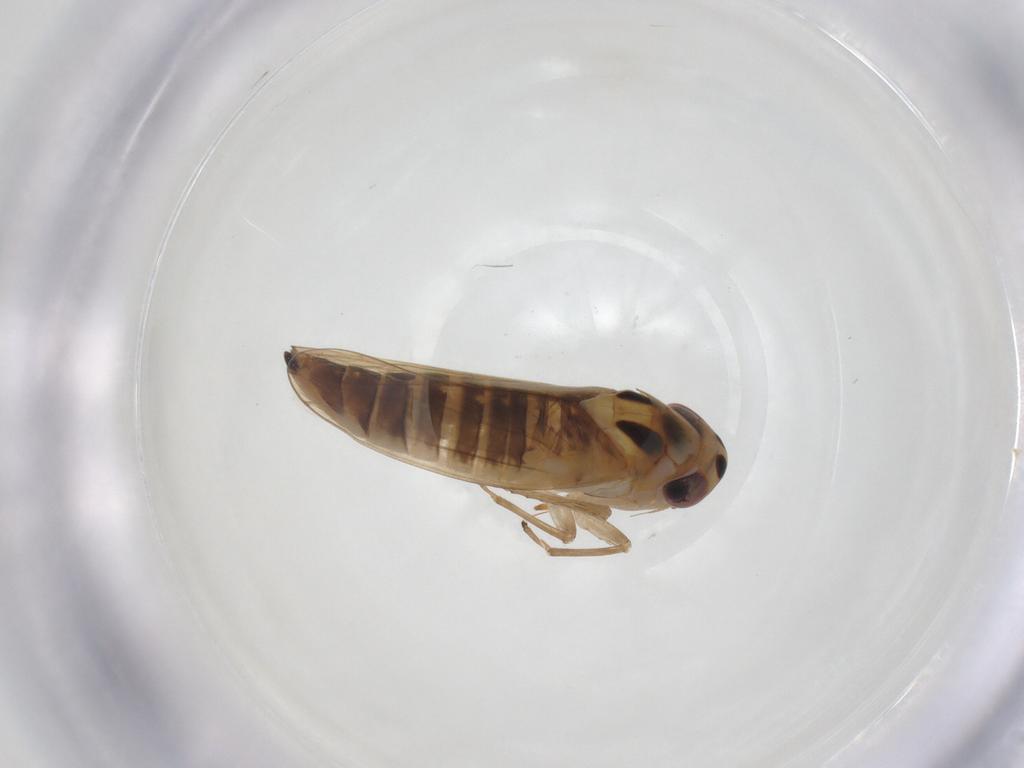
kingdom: Animalia
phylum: Arthropoda
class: Insecta
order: Hemiptera
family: Cicadellidae
